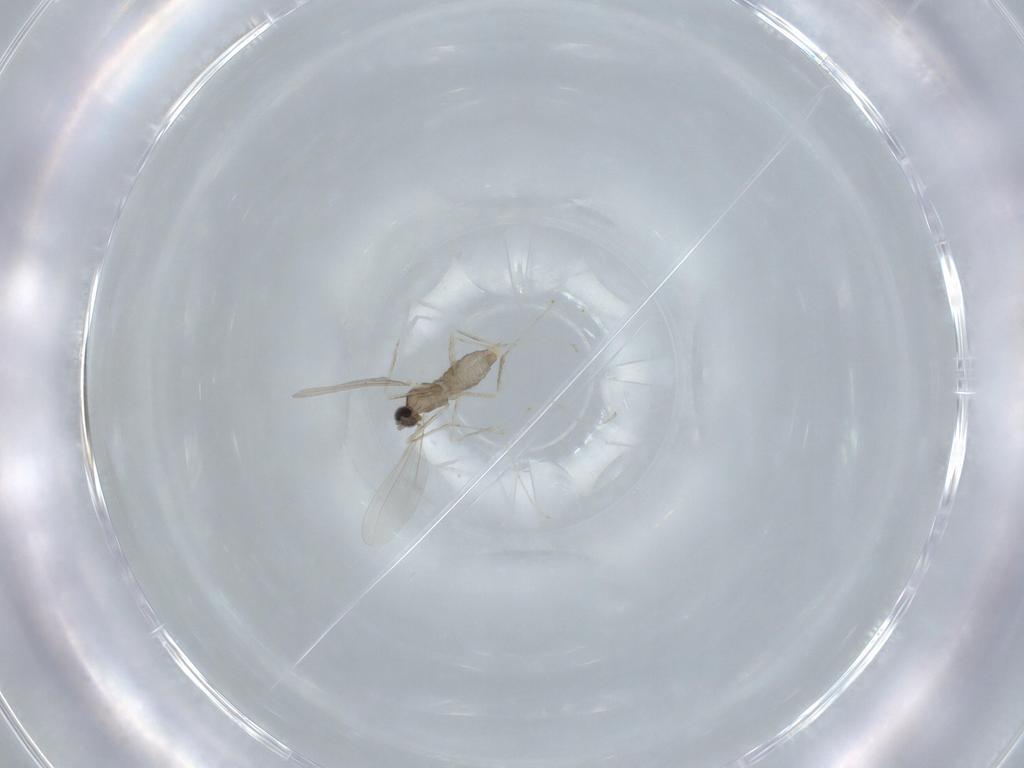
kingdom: Animalia
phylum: Arthropoda
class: Insecta
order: Diptera
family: Cecidomyiidae
